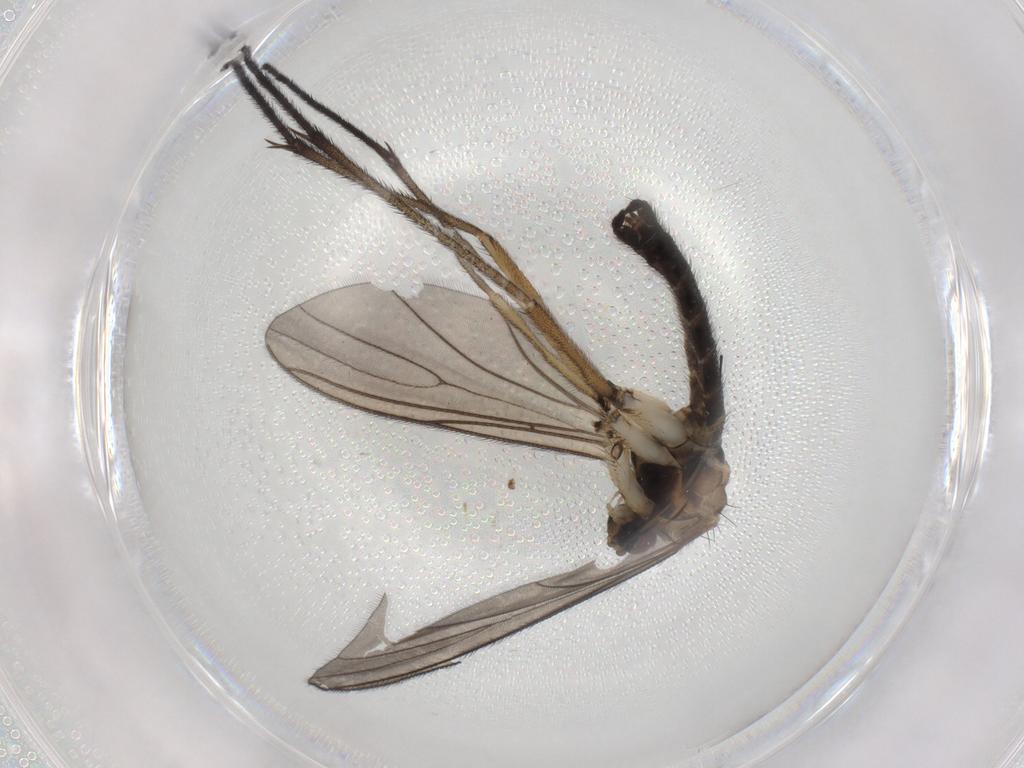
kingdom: Animalia
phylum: Arthropoda
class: Insecta
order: Diptera
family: Sciaridae
